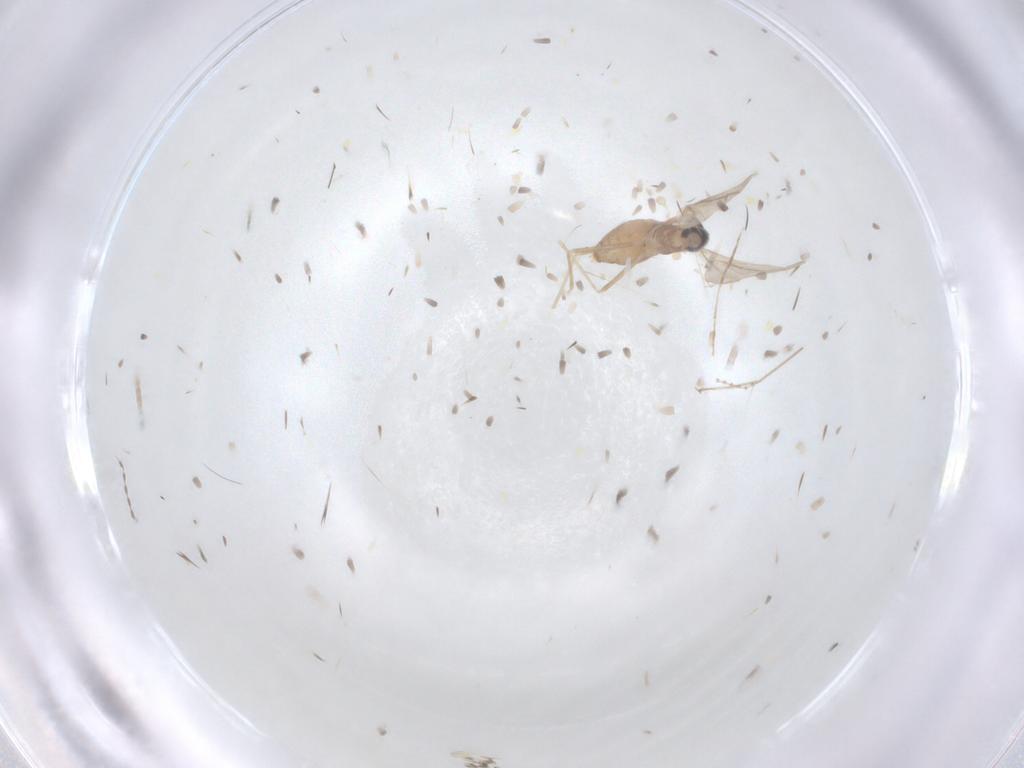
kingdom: Animalia
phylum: Arthropoda
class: Insecta
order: Diptera
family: Cecidomyiidae
